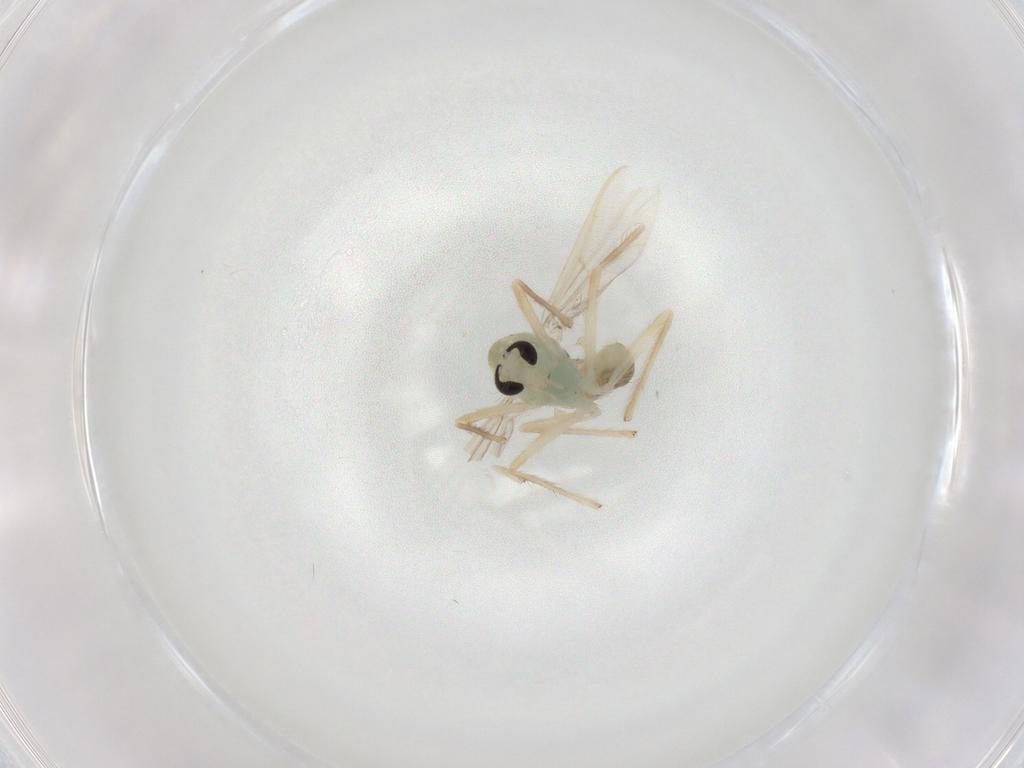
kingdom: Animalia
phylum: Arthropoda
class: Insecta
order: Diptera
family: Chironomidae
